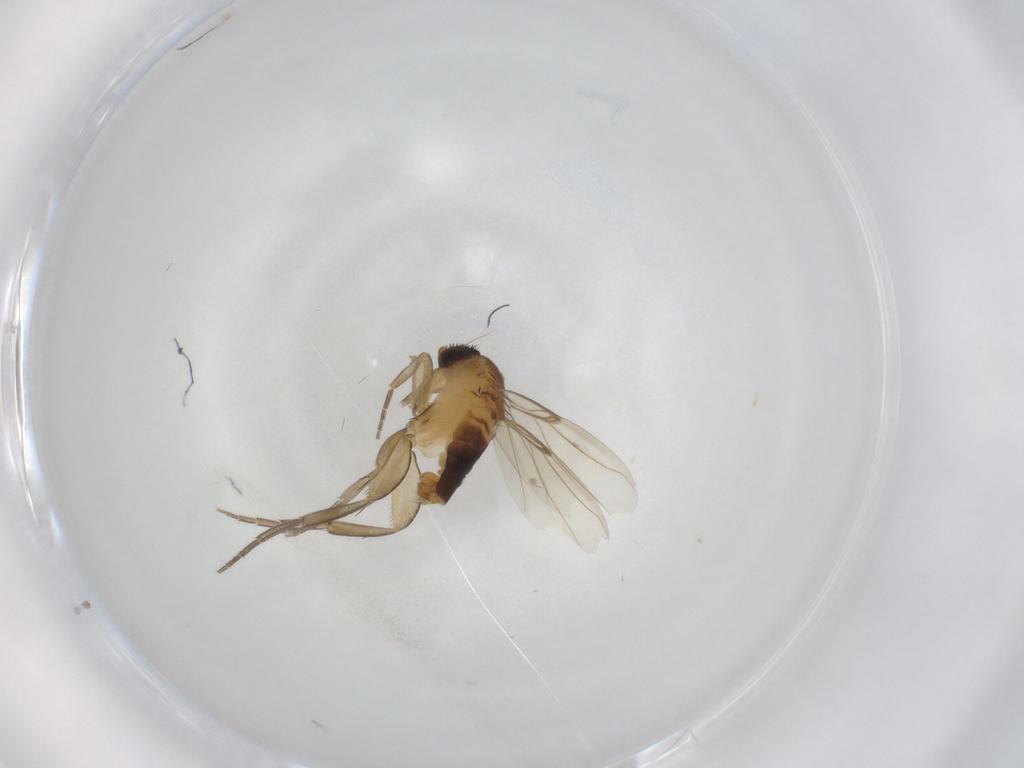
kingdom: Animalia
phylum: Arthropoda
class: Insecta
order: Diptera
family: Phoridae
